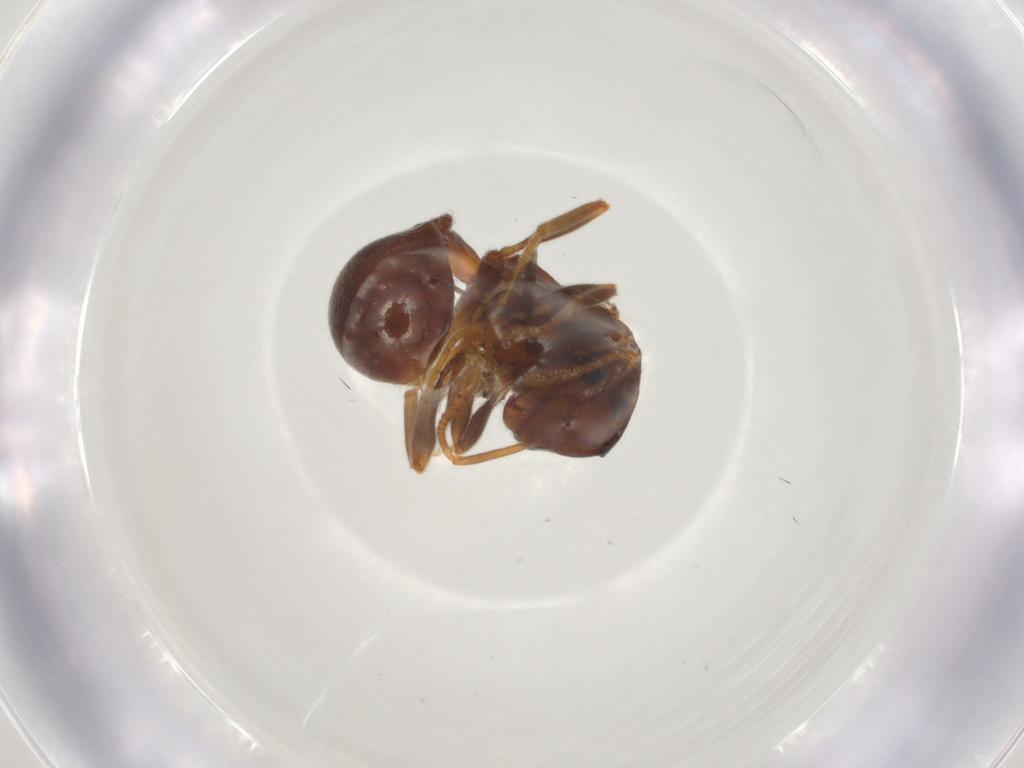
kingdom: Animalia
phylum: Arthropoda
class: Insecta
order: Hymenoptera
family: Formicidae
